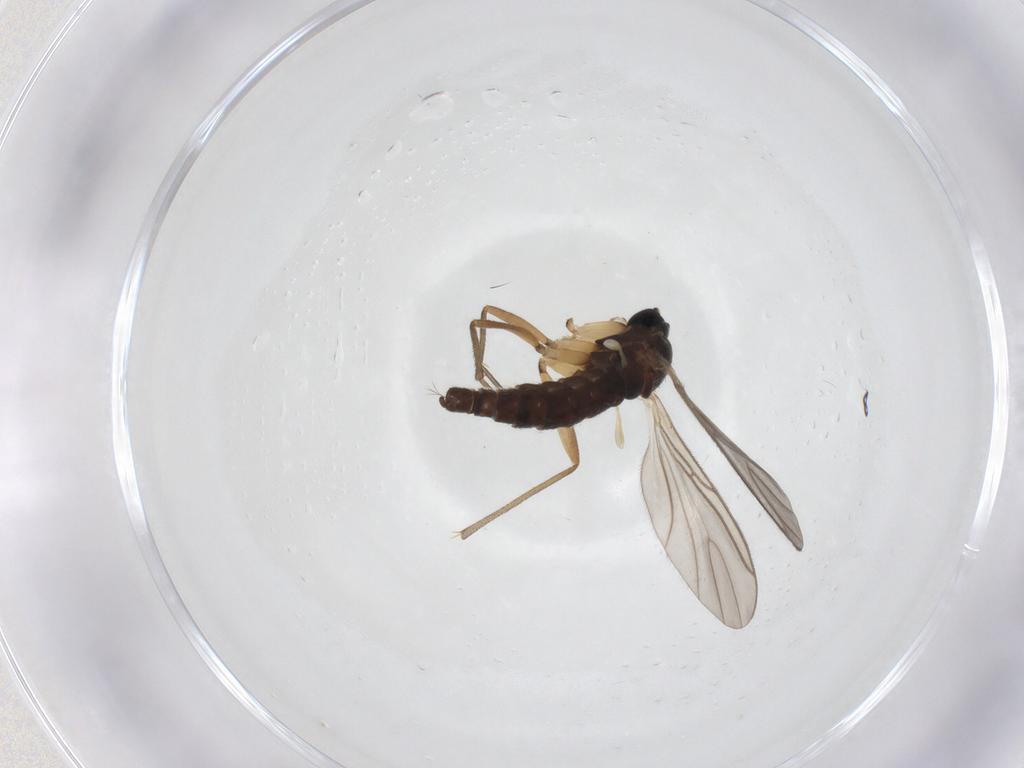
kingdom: Animalia
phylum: Arthropoda
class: Insecta
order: Diptera
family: Sciaridae
